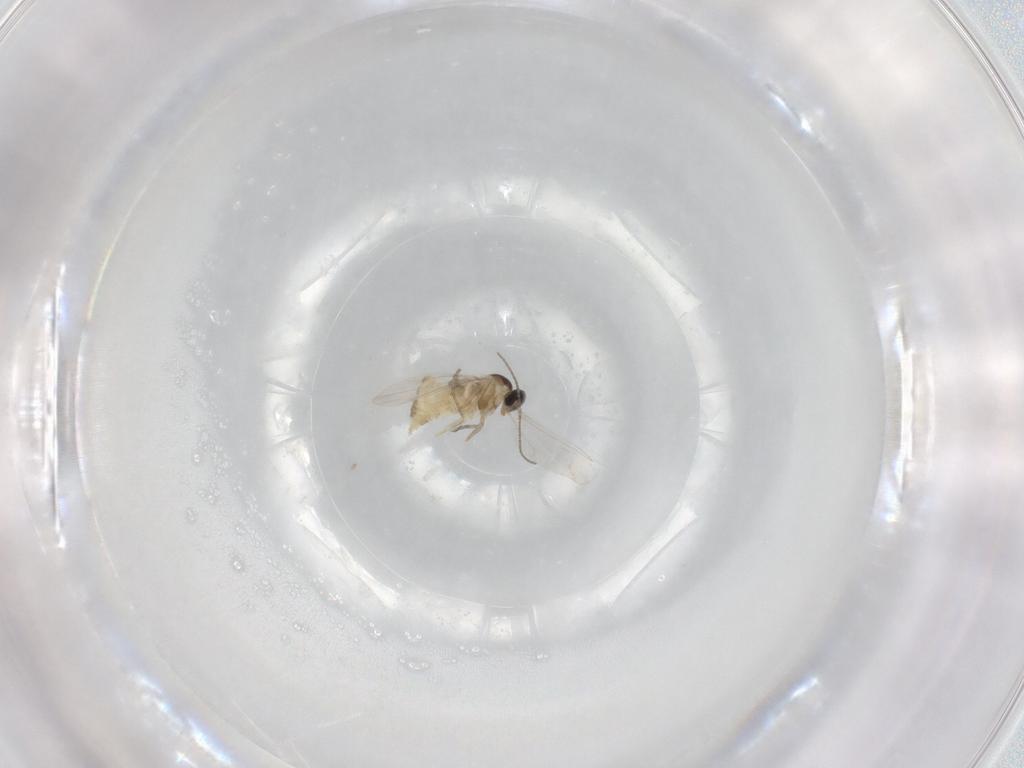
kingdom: Animalia
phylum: Arthropoda
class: Insecta
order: Diptera
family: Cecidomyiidae
